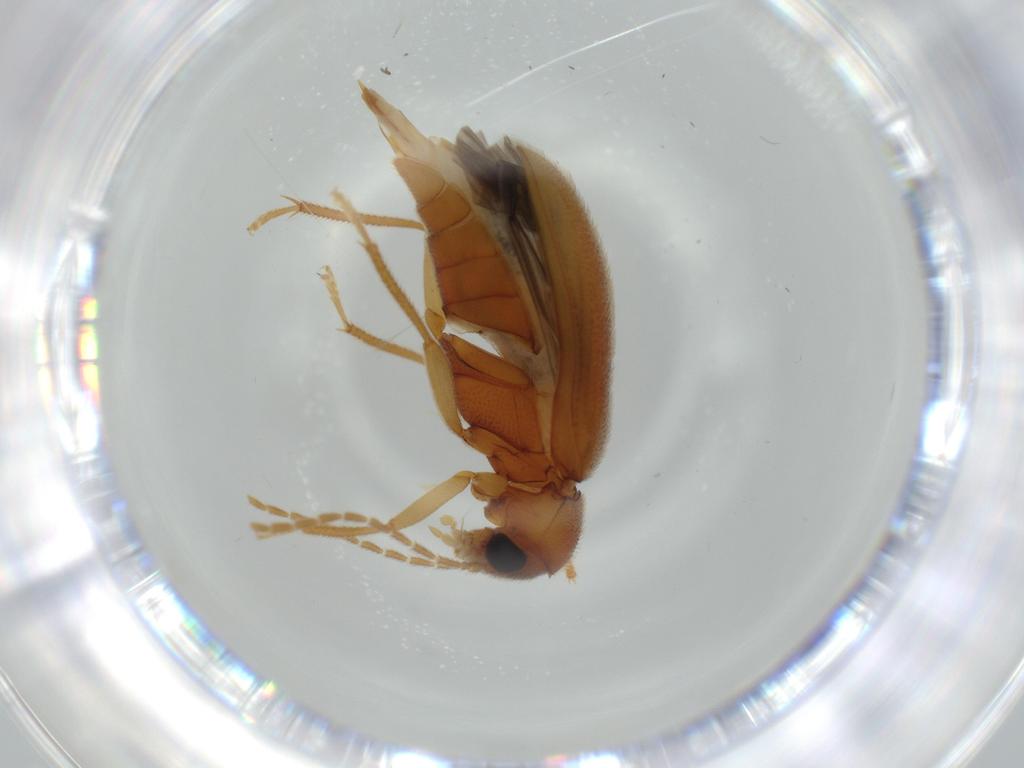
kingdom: Animalia
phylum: Arthropoda
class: Insecta
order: Coleoptera
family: Ptilodactylidae
